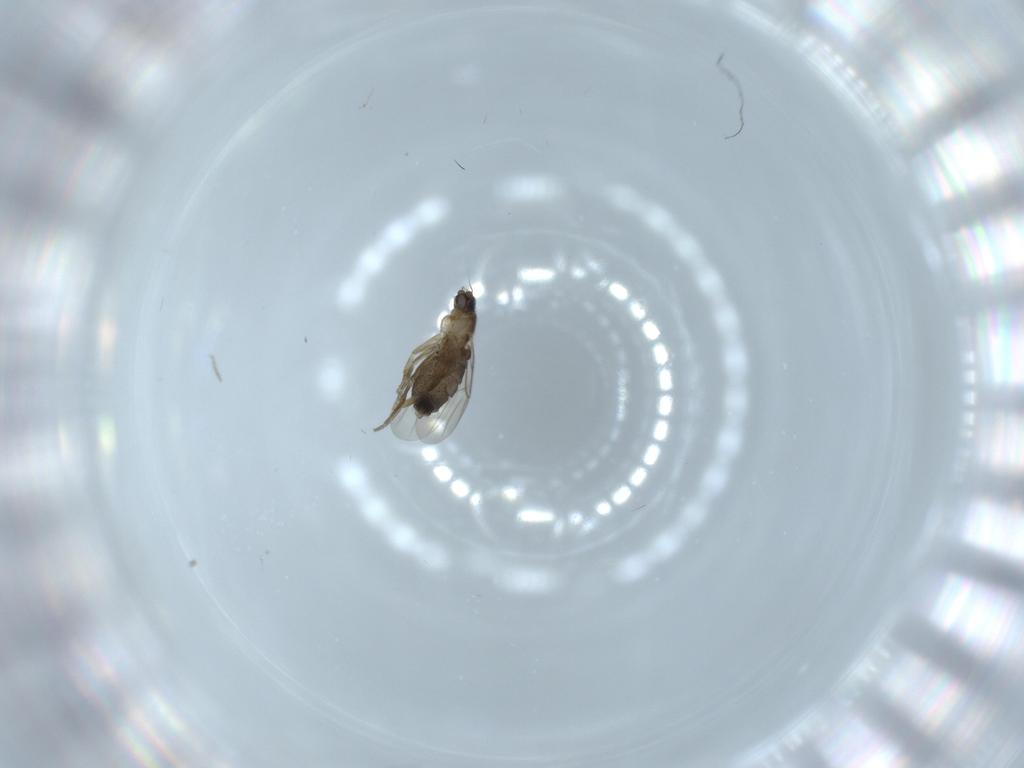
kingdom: Animalia
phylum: Arthropoda
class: Insecta
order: Diptera
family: Phoridae
